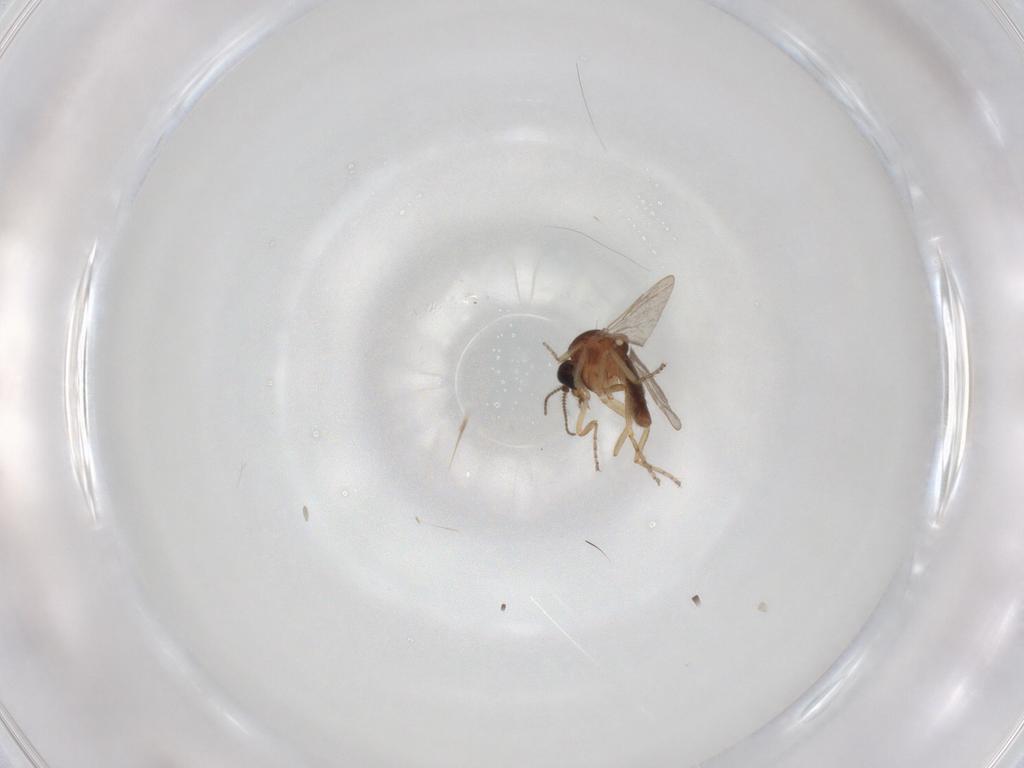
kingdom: Animalia
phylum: Arthropoda
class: Insecta
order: Diptera
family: Ceratopogonidae
